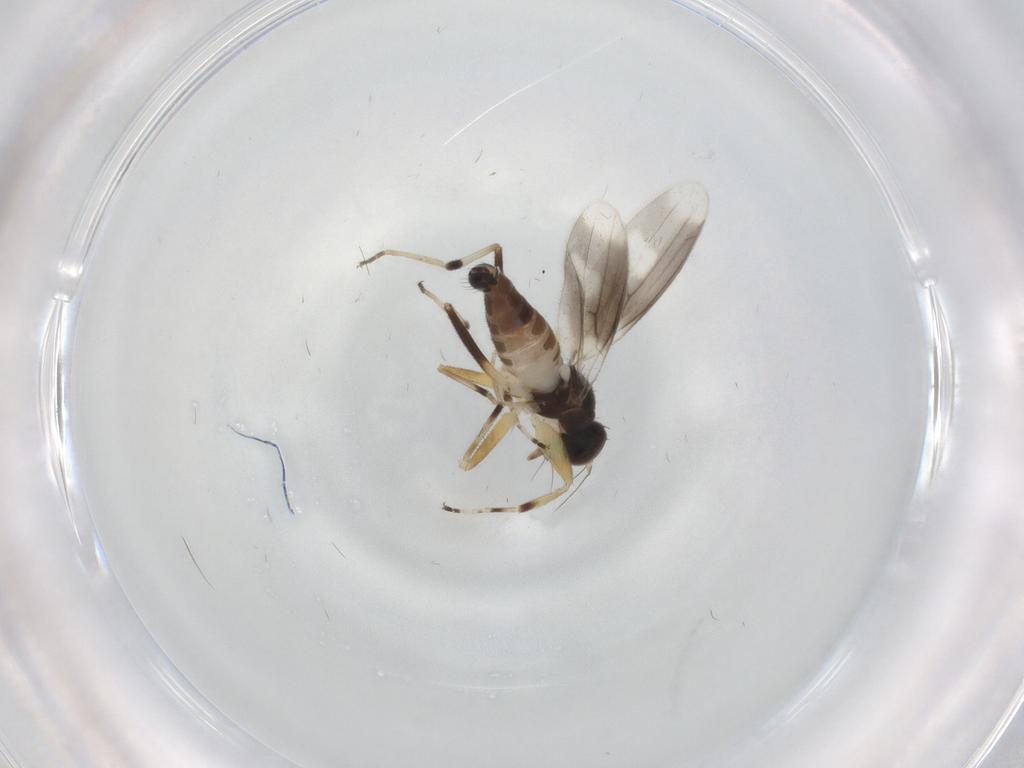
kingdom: Animalia
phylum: Arthropoda
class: Insecta
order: Diptera
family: Hybotidae
